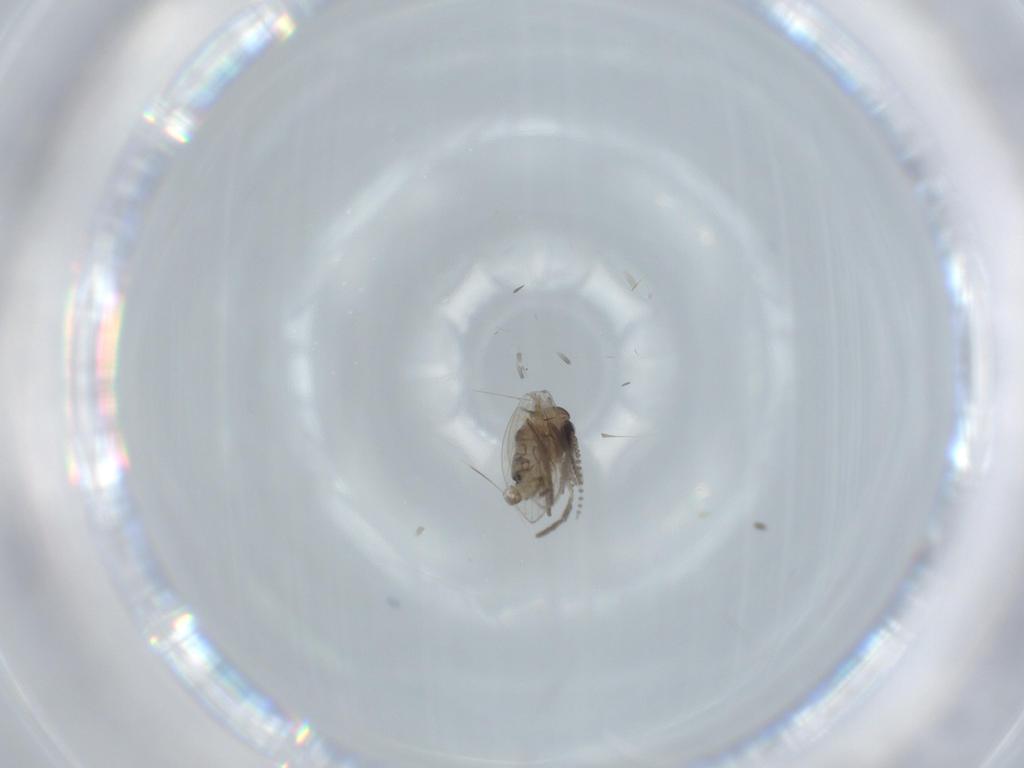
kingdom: Animalia
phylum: Arthropoda
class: Insecta
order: Diptera
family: Psychodidae
